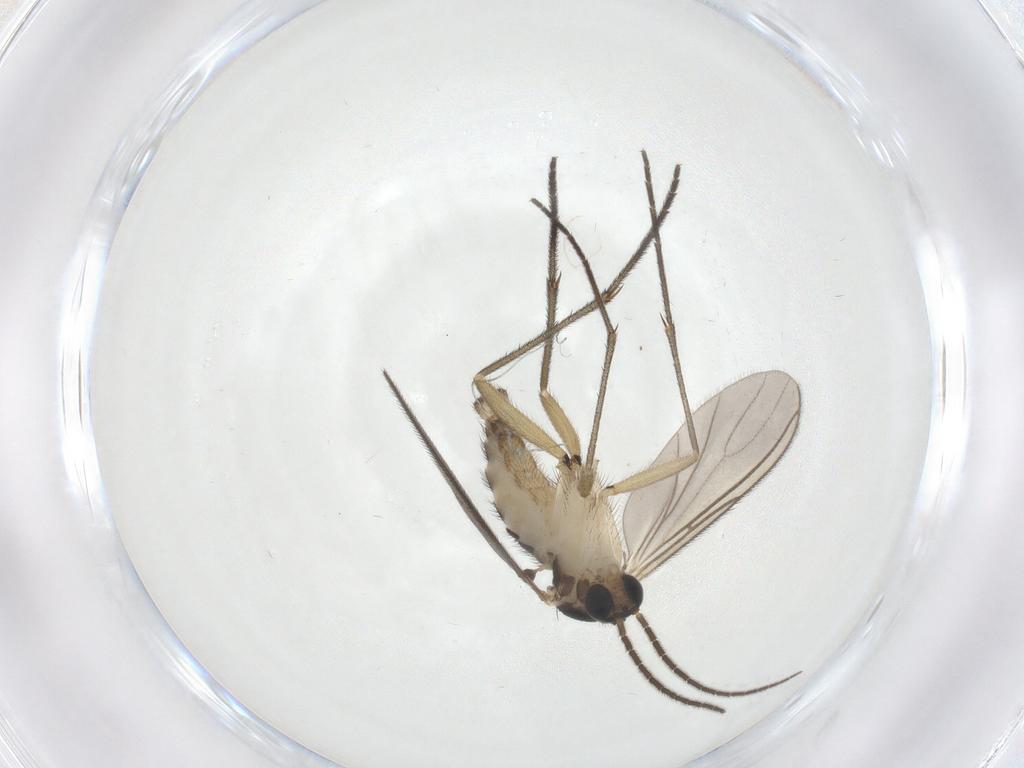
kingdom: Animalia
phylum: Arthropoda
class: Insecta
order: Diptera
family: Sciaridae
